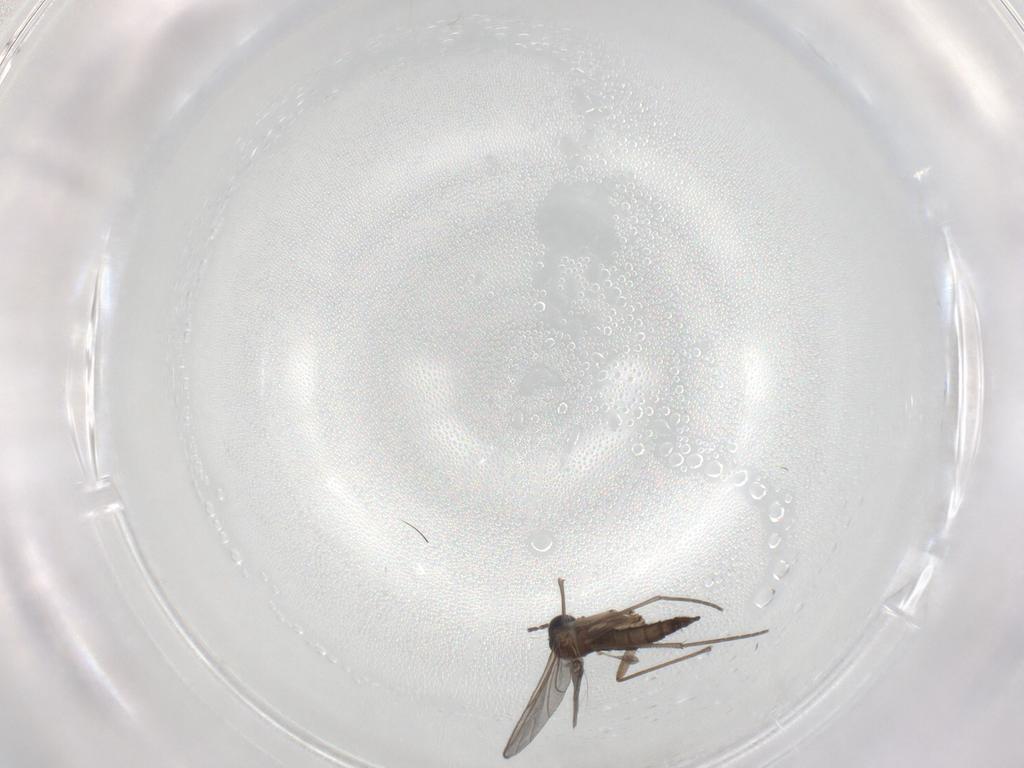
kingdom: Animalia
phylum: Arthropoda
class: Insecta
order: Diptera
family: Sciaridae
